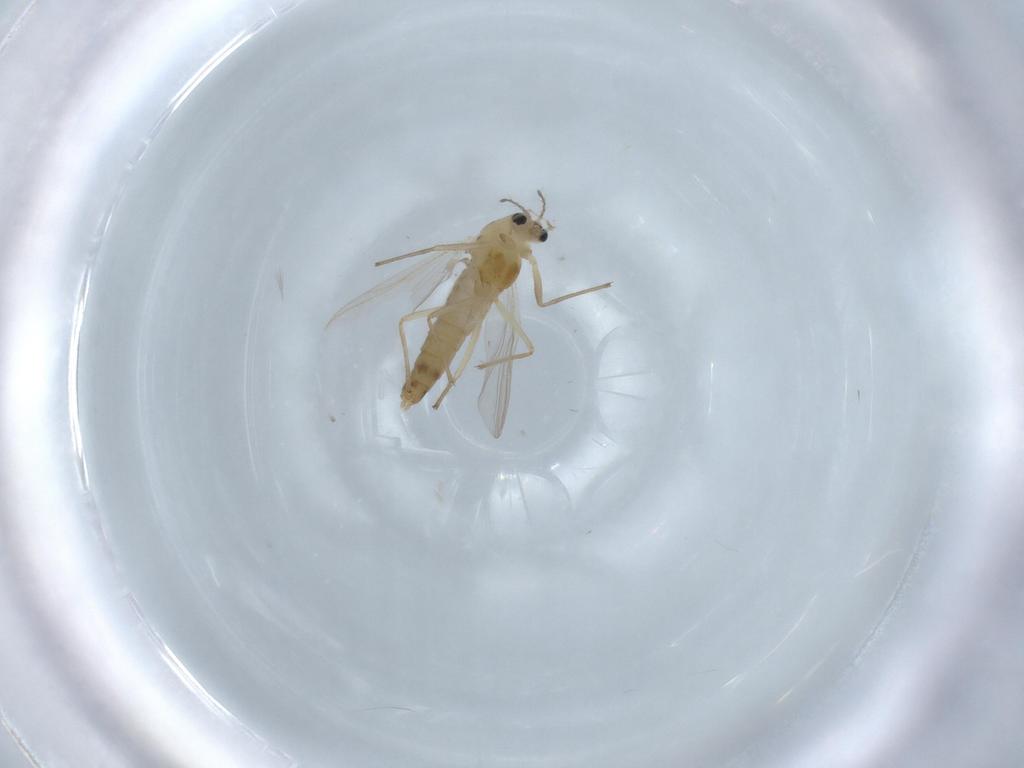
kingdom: Animalia
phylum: Arthropoda
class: Insecta
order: Diptera
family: Chironomidae
